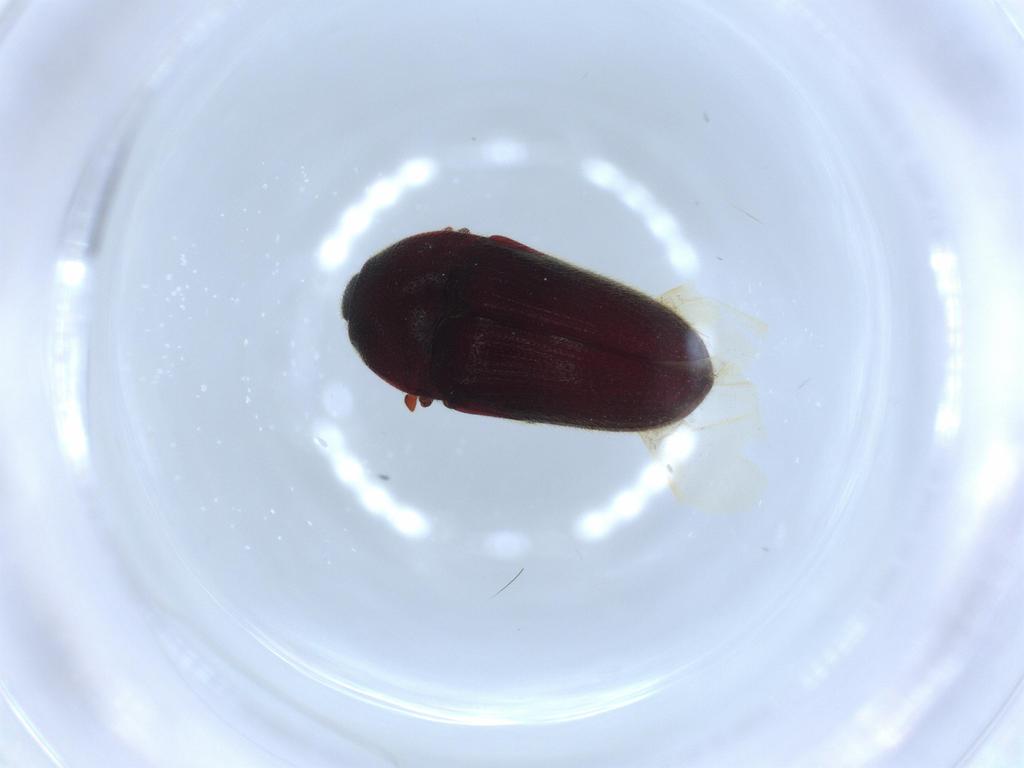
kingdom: Animalia
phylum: Arthropoda
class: Insecta
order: Coleoptera
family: Throscidae
